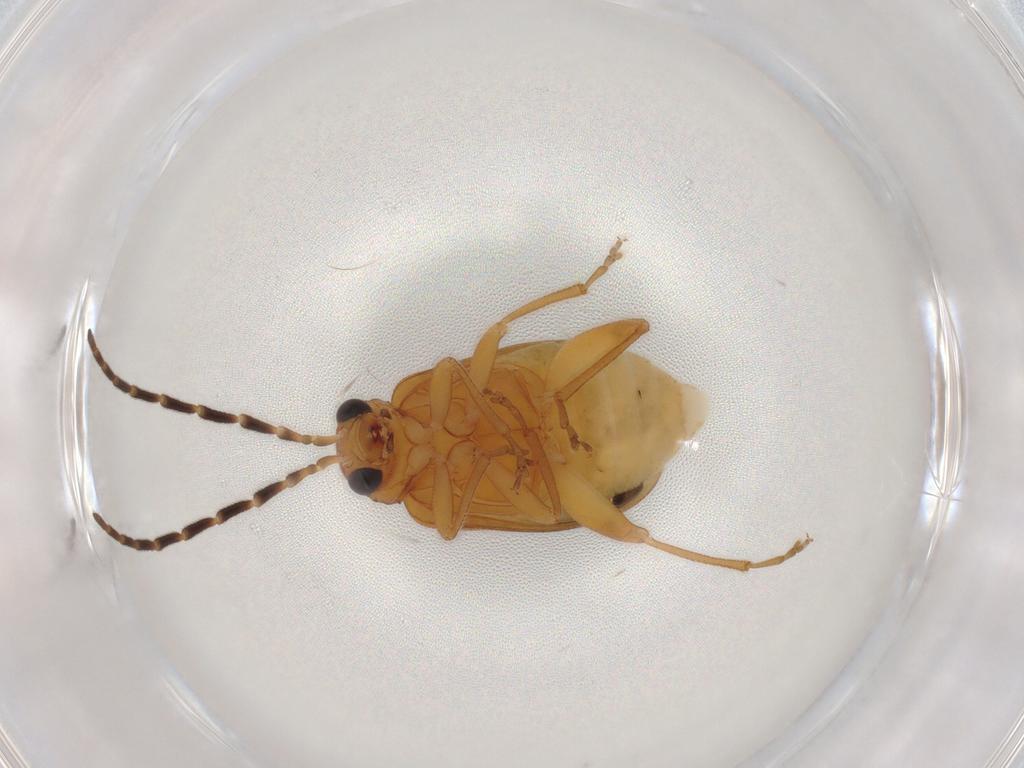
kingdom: Animalia
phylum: Arthropoda
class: Insecta
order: Coleoptera
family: Chrysomelidae
